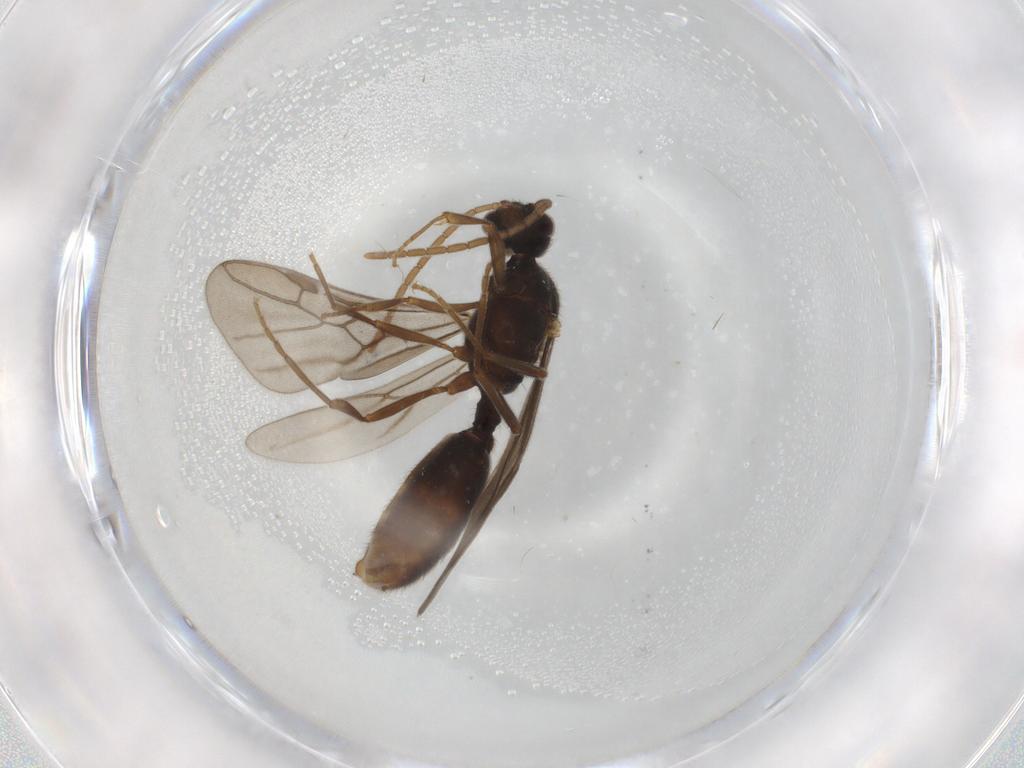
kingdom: Animalia
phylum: Arthropoda
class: Insecta
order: Hymenoptera
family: Formicidae
